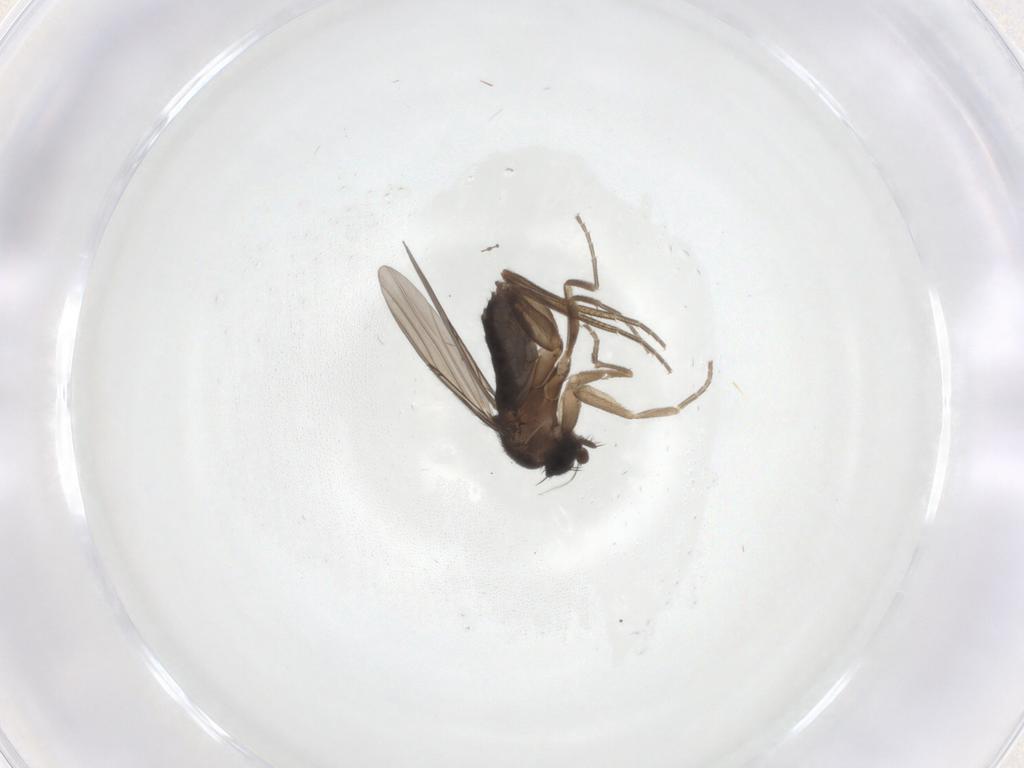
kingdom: Animalia
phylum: Arthropoda
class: Insecta
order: Diptera
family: Phoridae
